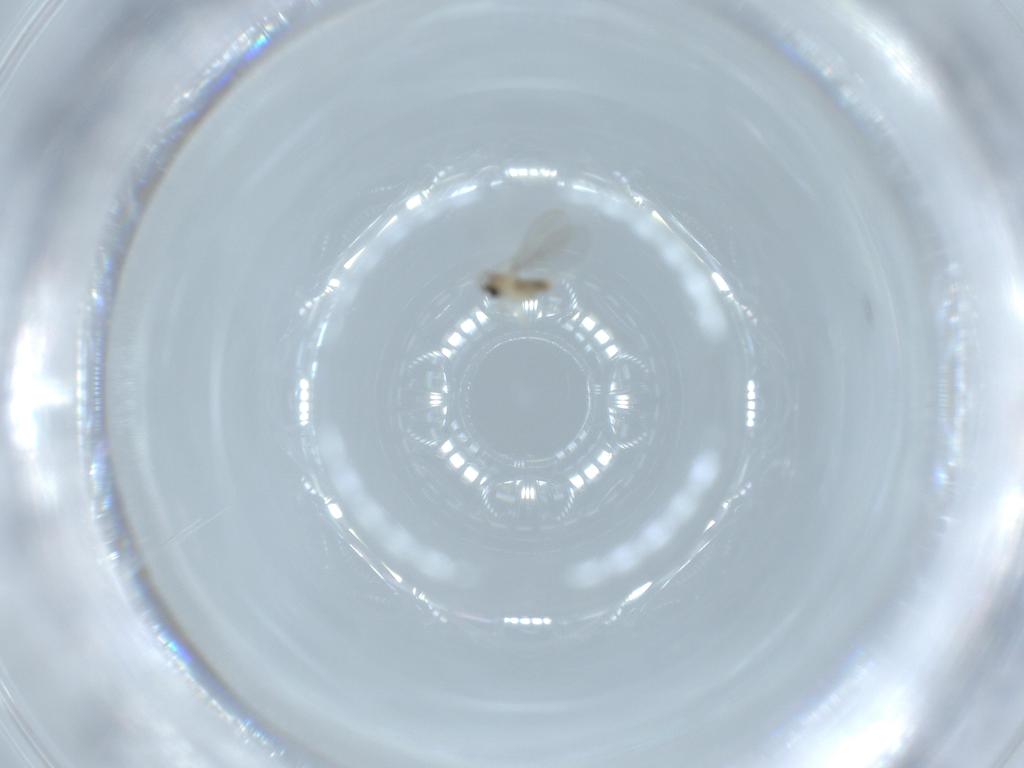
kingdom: Animalia
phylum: Arthropoda
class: Insecta
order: Diptera
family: Cecidomyiidae
